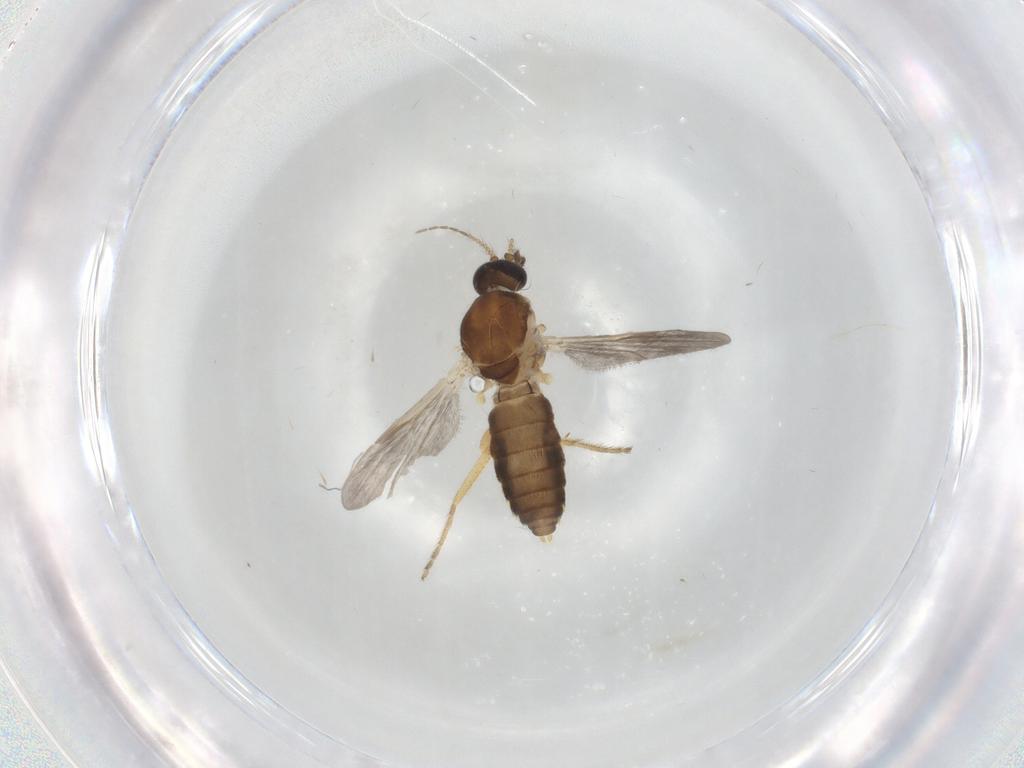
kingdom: Animalia
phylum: Arthropoda
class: Insecta
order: Diptera
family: Ceratopogonidae
